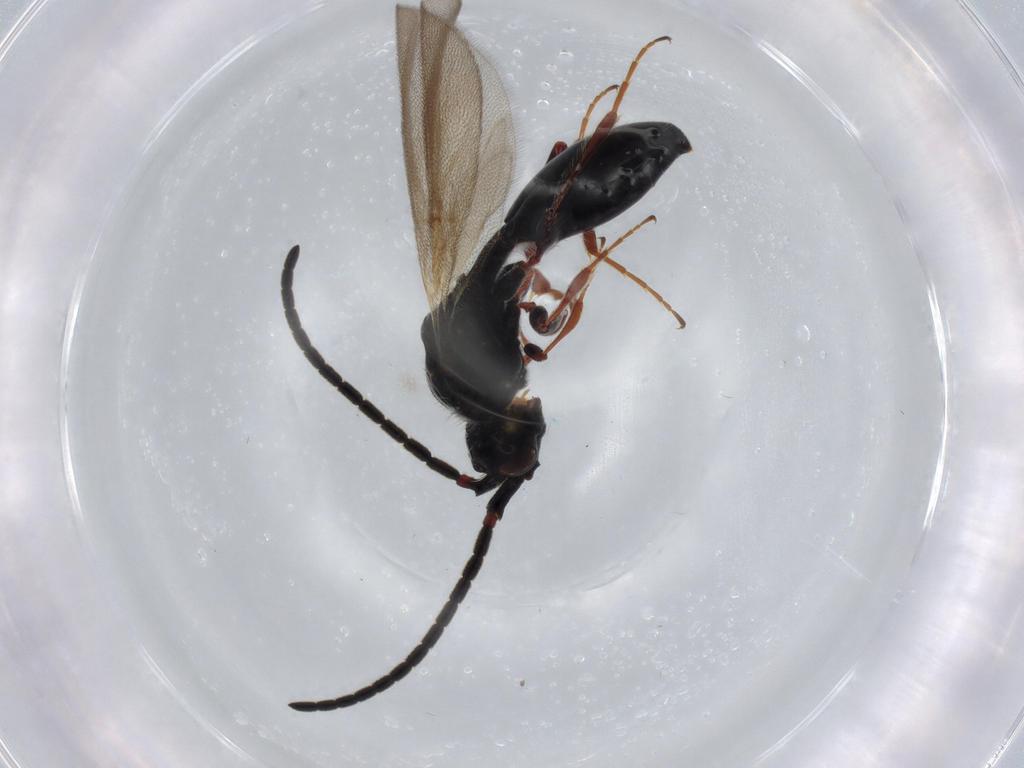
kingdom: Animalia
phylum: Arthropoda
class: Insecta
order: Hymenoptera
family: Diapriidae
